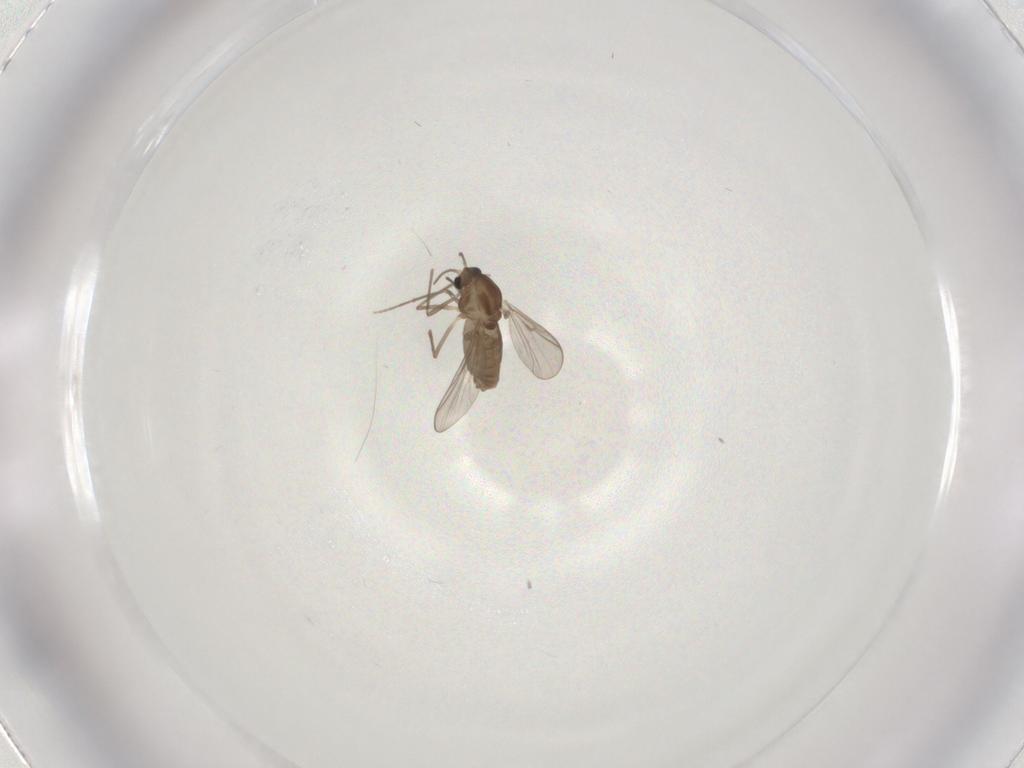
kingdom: Animalia
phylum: Arthropoda
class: Insecta
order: Diptera
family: Chironomidae
